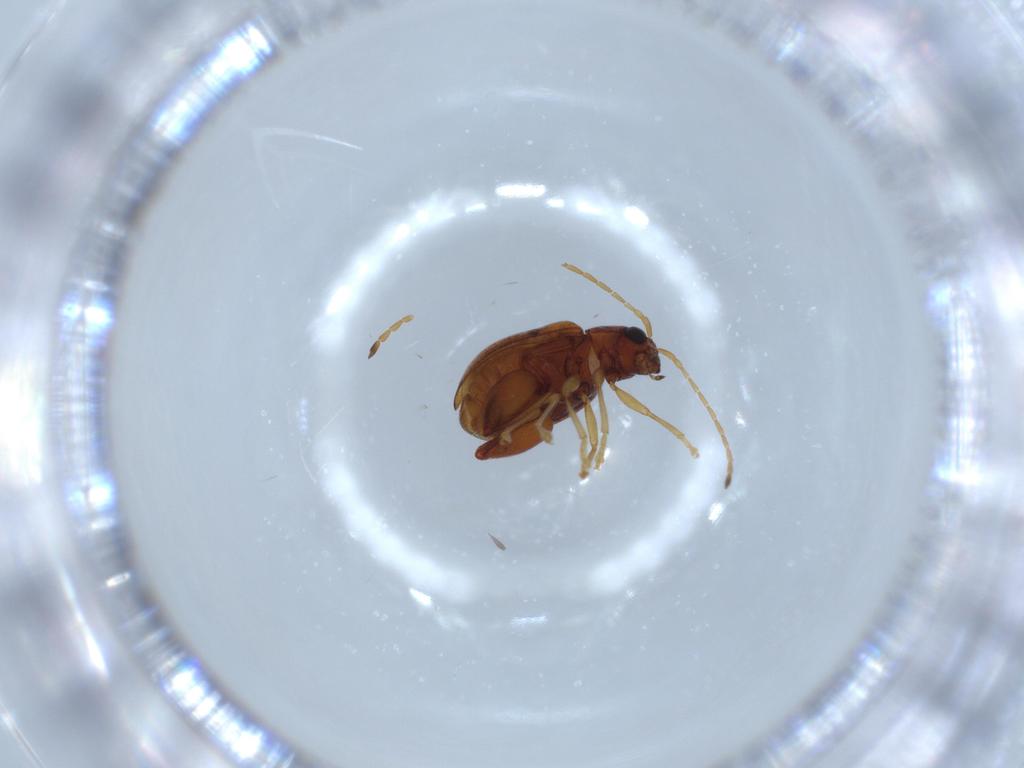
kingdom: Animalia
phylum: Arthropoda
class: Insecta
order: Coleoptera
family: Chrysomelidae
